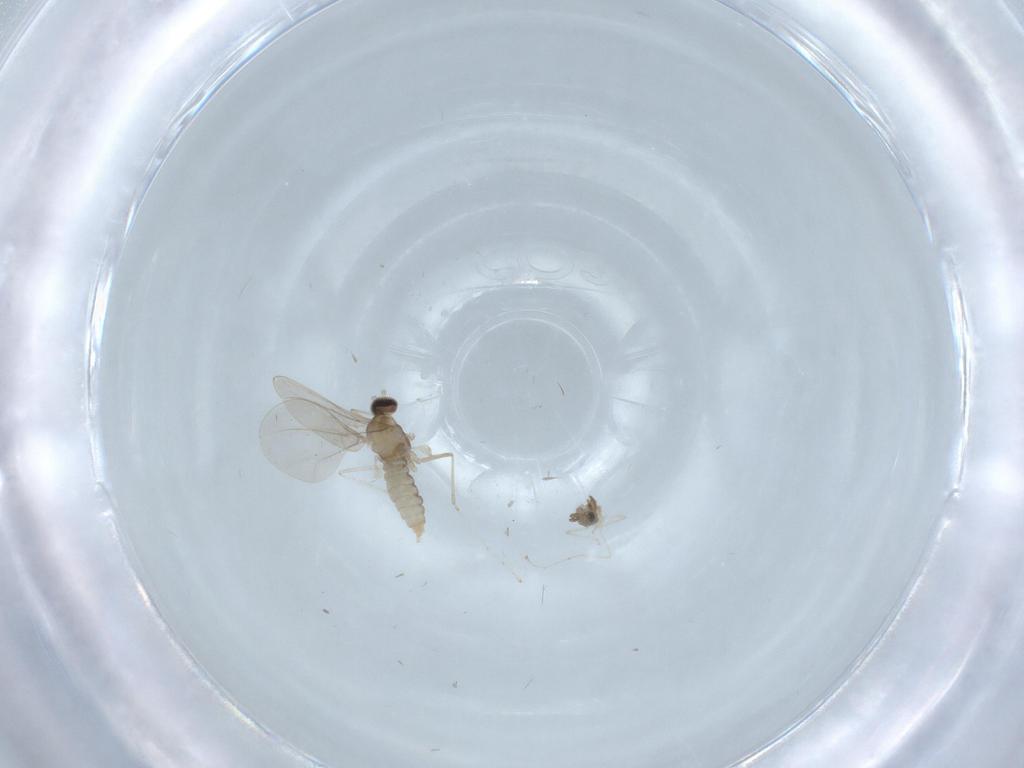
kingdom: Animalia
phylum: Arthropoda
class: Insecta
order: Diptera
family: Cecidomyiidae
